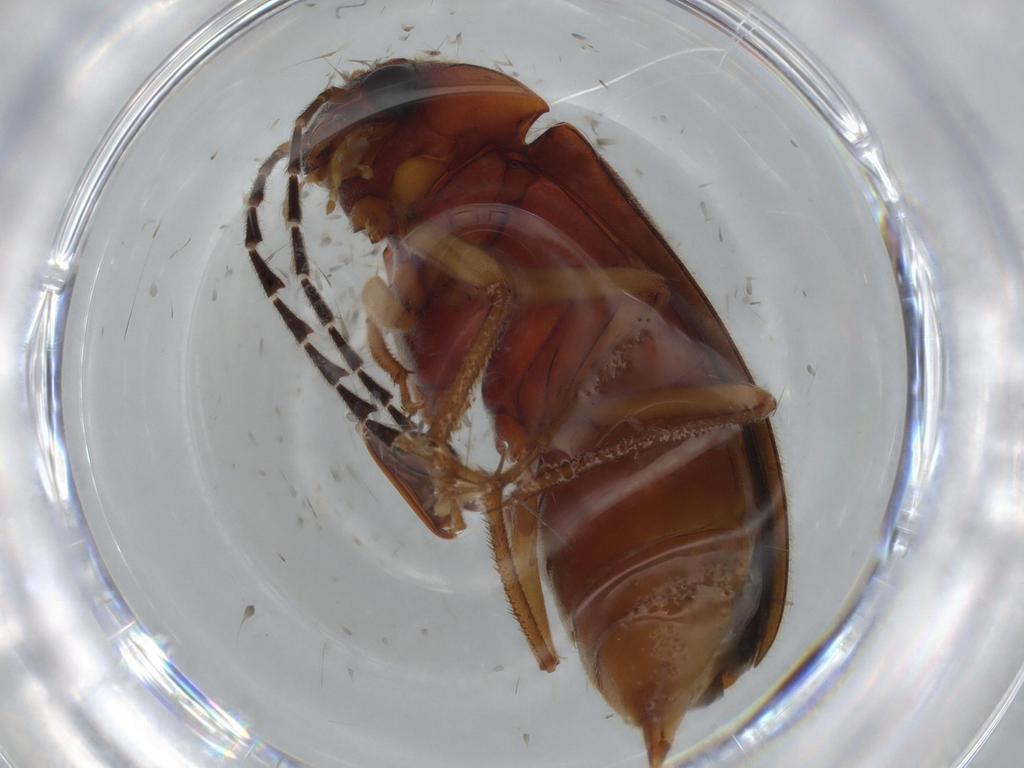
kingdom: Animalia
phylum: Arthropoda
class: Insecta
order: Coleoptera
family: Ptilodactylidae
